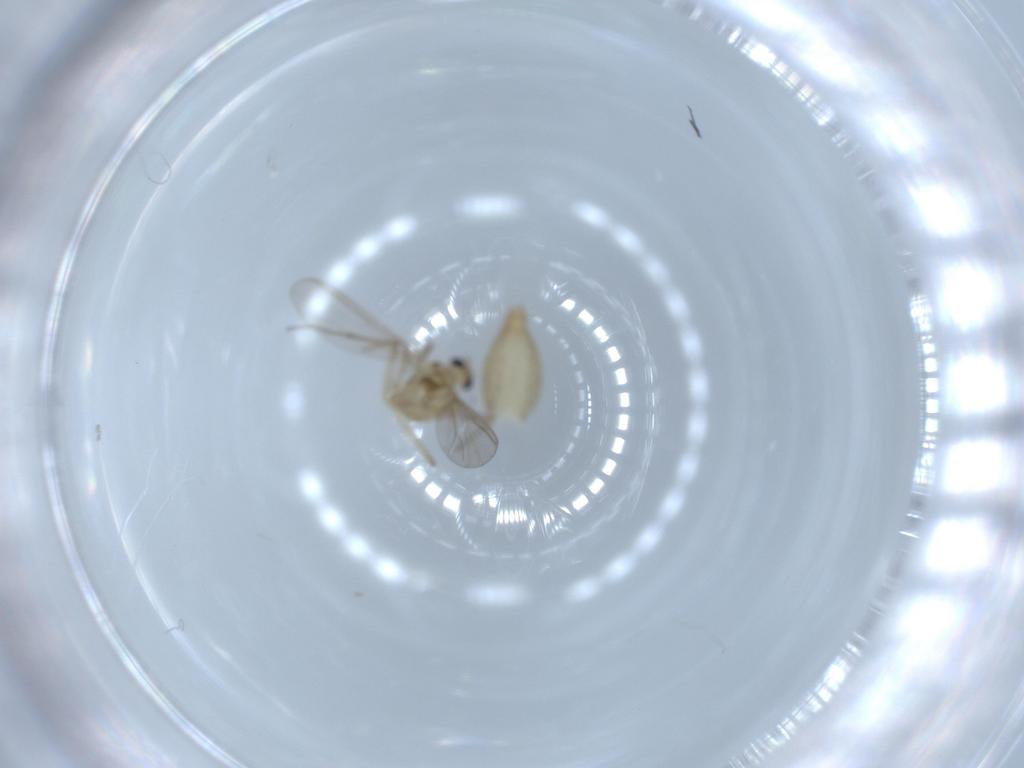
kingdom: Animalia
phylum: Arthropoda
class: Insecta
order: Diptera
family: Chironomidae
